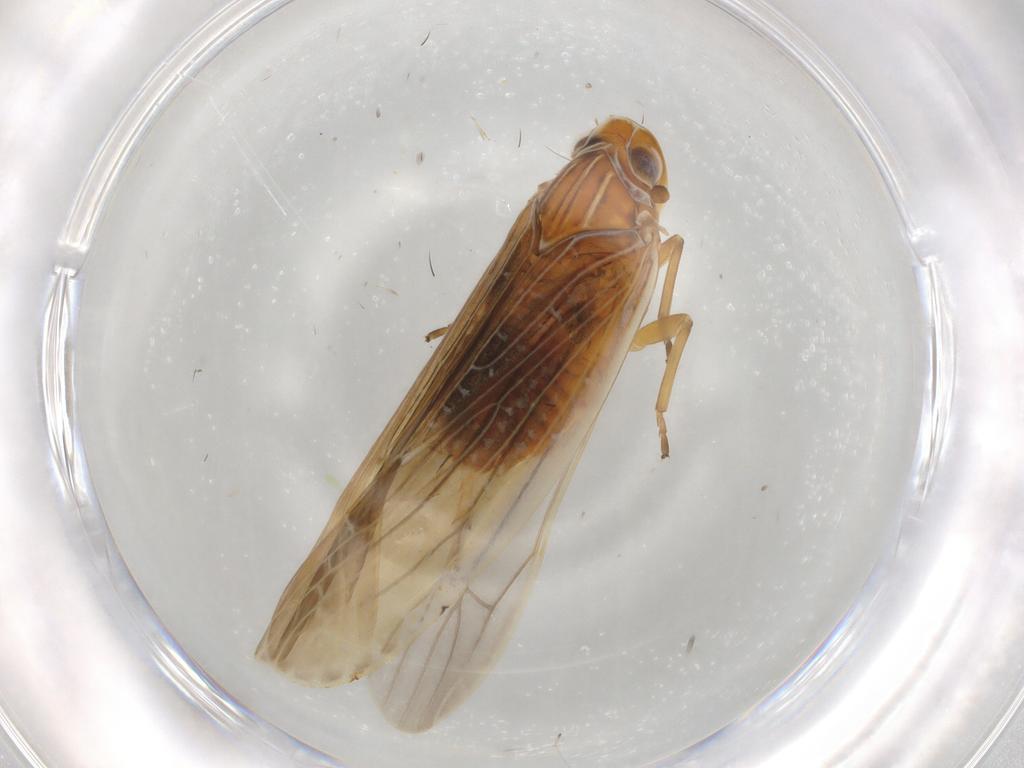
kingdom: Animalia
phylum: Arthropoda
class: Insecta
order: Hemiptera
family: Achilidae
